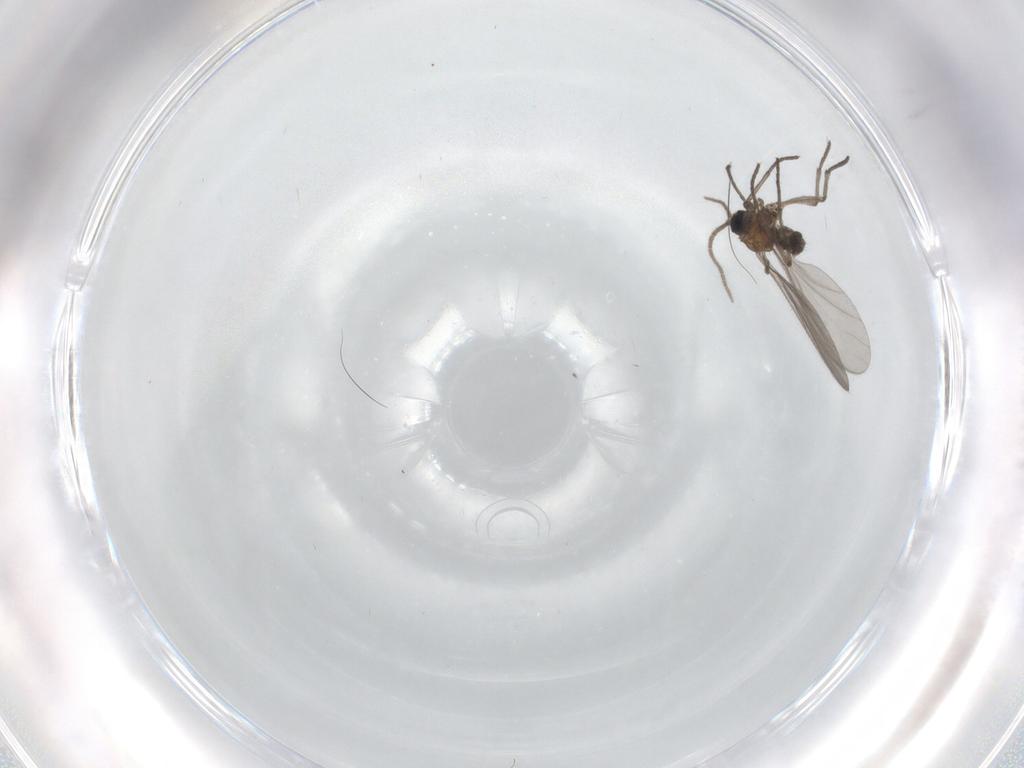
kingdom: Animalia
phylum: Arthropoda
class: Insecta
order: Diptera
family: Sciaridae
